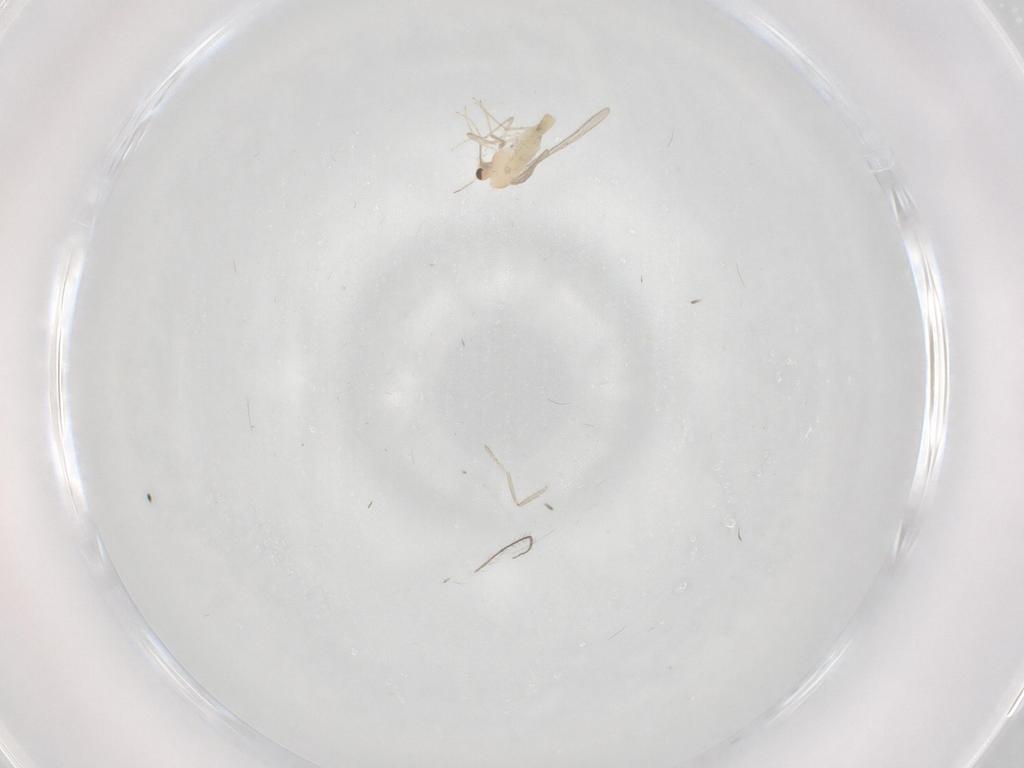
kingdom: Animalia
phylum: Arthropoda
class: Insecta
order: Diptera
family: Chironomidae
